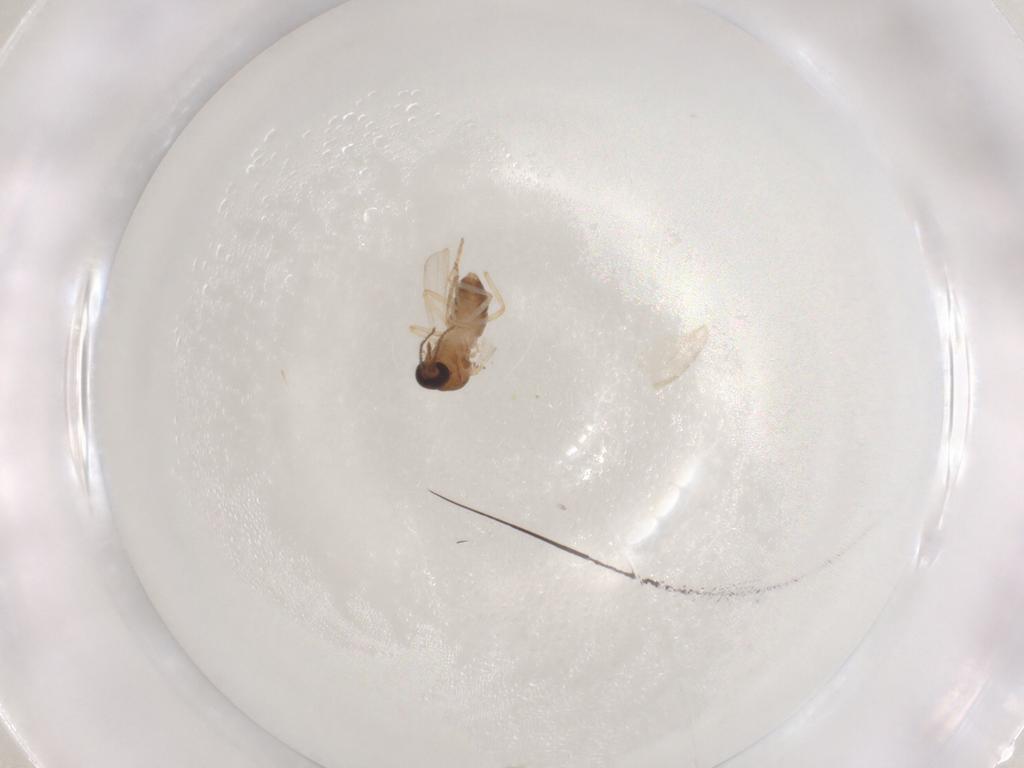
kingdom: Animalia
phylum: Arthropoda
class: Insecta
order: Diptera
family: Ceratopogonidae
